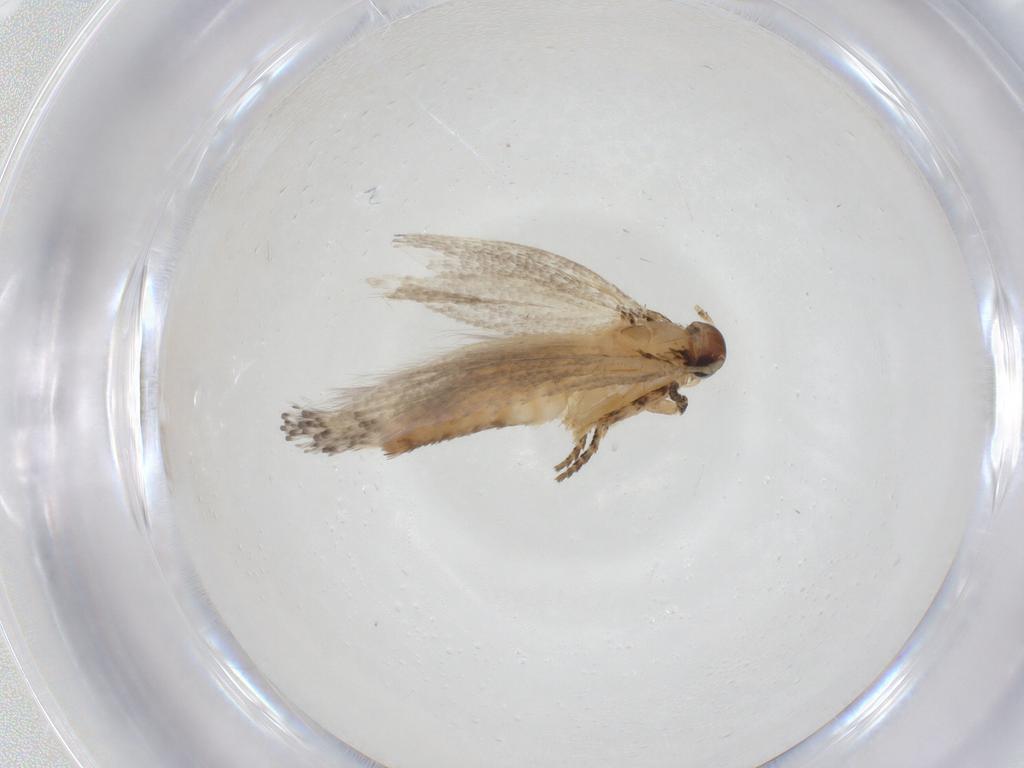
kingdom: Animalia
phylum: Arthropoda
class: Insecta
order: Lepidoptera
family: Gelechiidae
